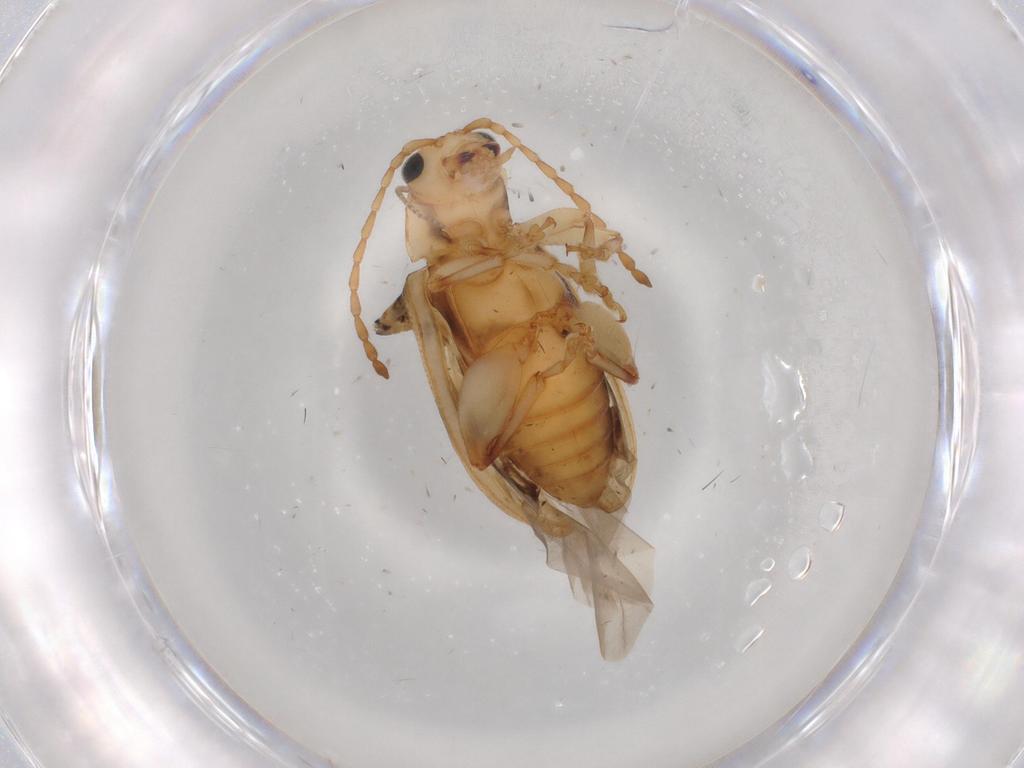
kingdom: Animalia
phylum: Arthropoda
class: Insecta
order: Coleoptera
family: Chrysomelidae
